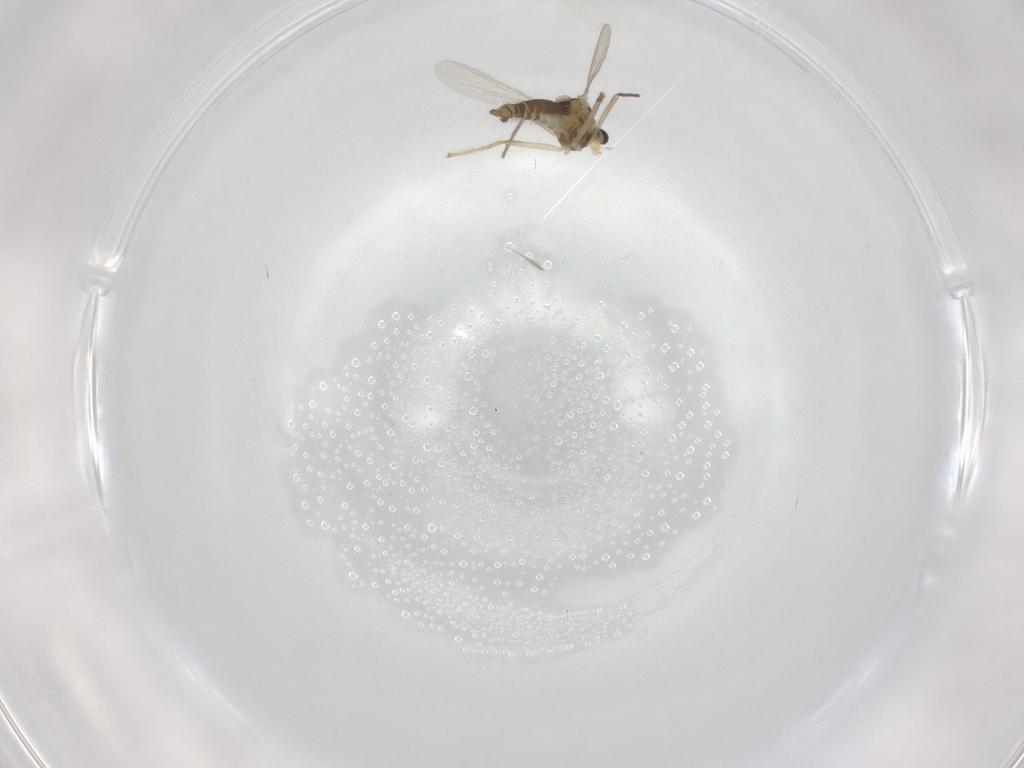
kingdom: Animalia
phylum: Arthropoda
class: Insecta
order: Diptera
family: Chironomidae
